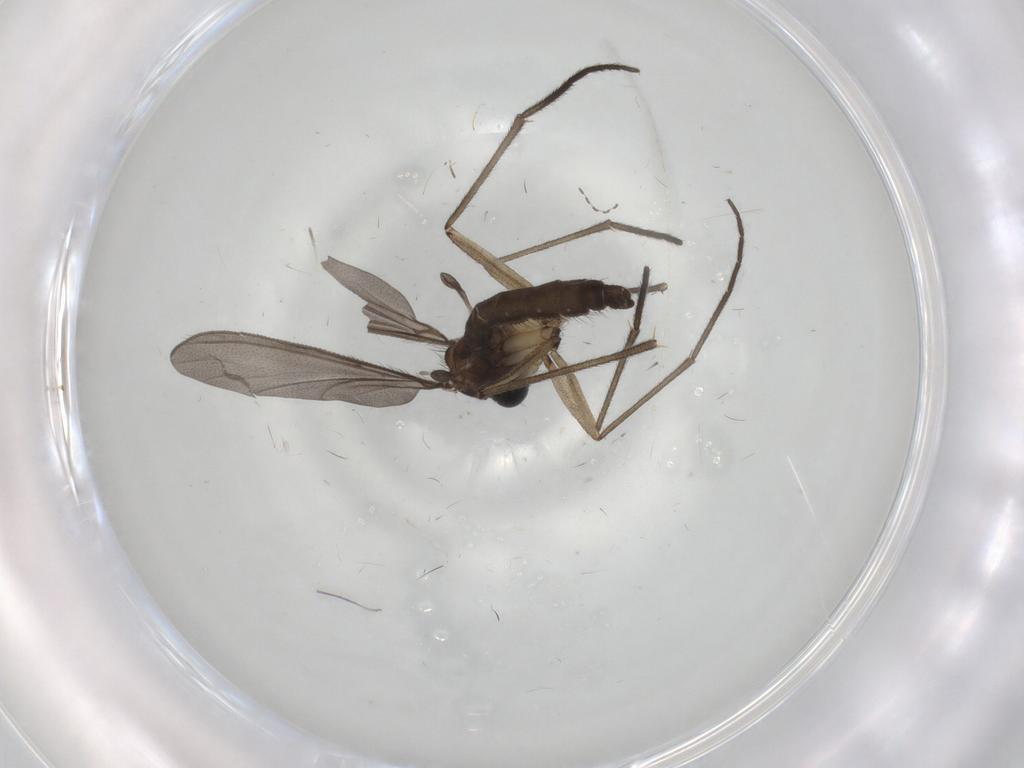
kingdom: Animalia
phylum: Arthropoda
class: Insecta
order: Diptera
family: Sciaridae
